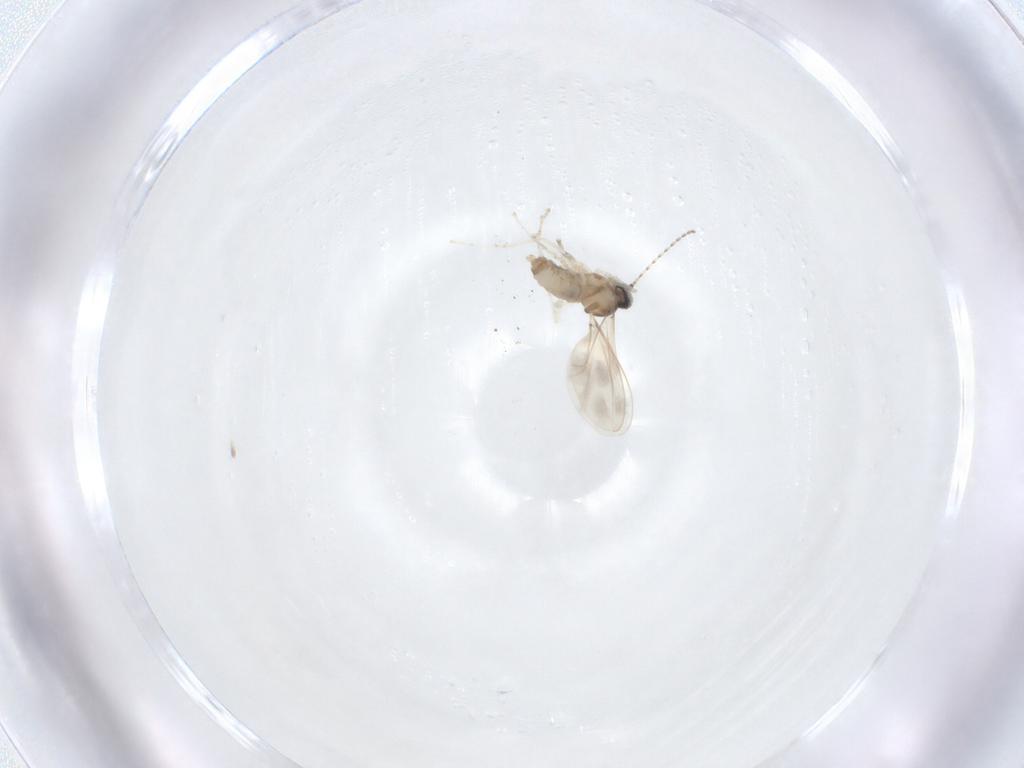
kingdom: Animalia
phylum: Arthropoda
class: Insecta
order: Diptera
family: Cecidomyiidae
